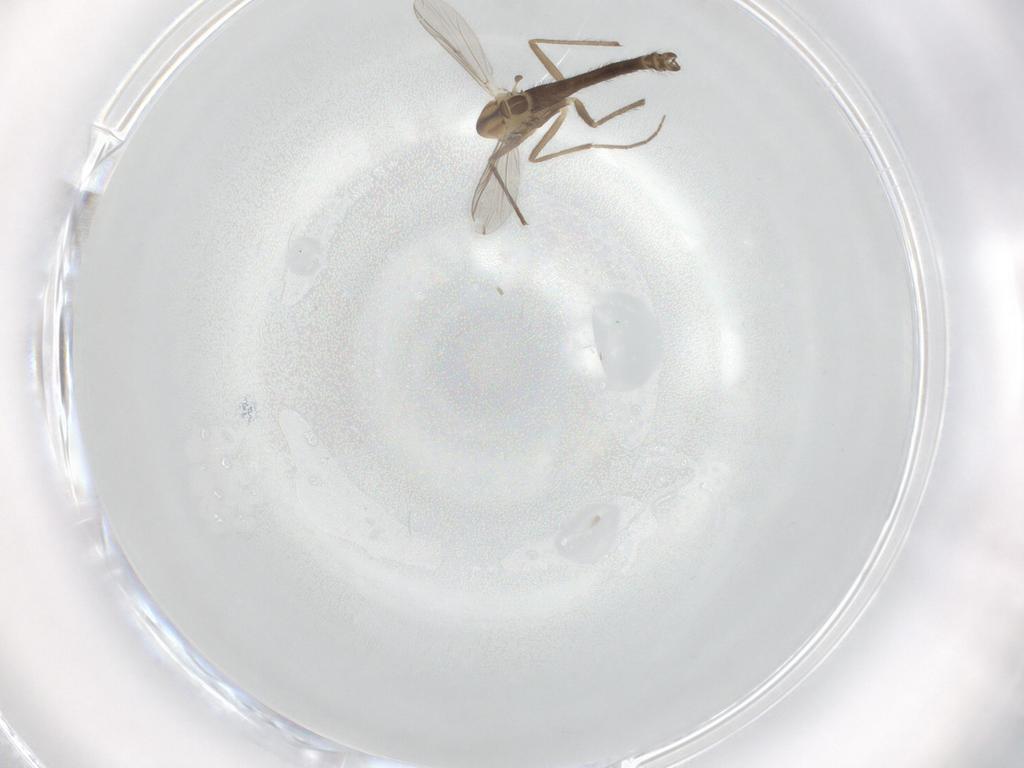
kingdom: Animalia
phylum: Arthropoda
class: Insecta
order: Diptera
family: Chironomidae
